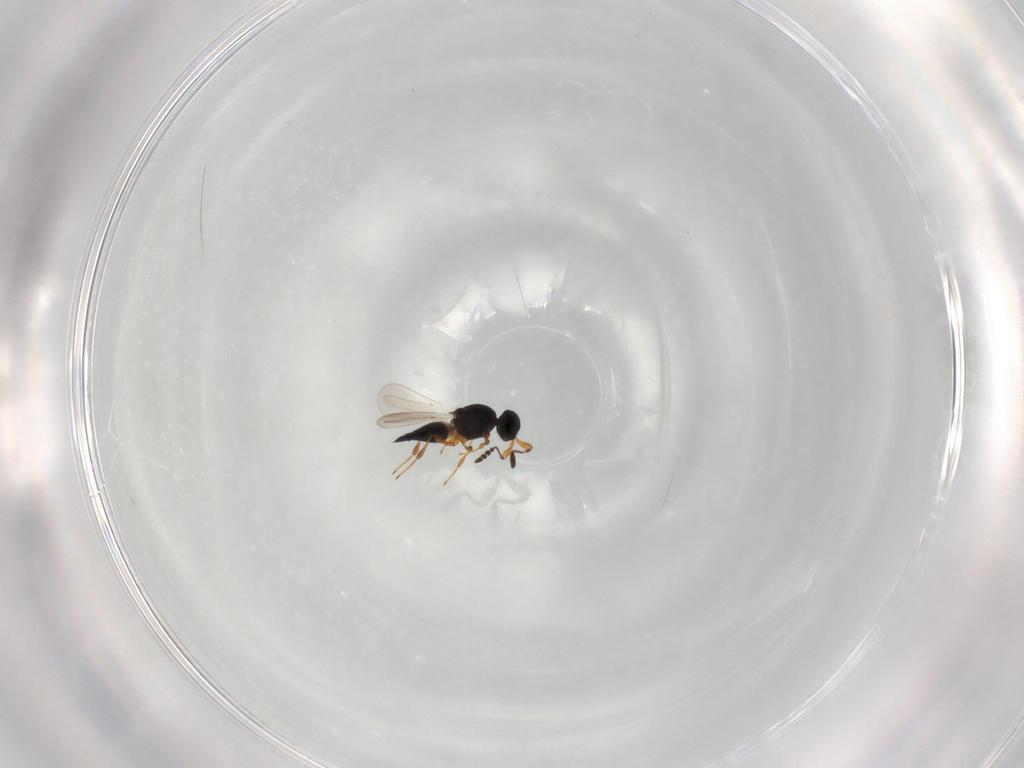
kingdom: Animalia
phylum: Arthropoda
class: Insecta
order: Hymenoptera
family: Platygastridae
